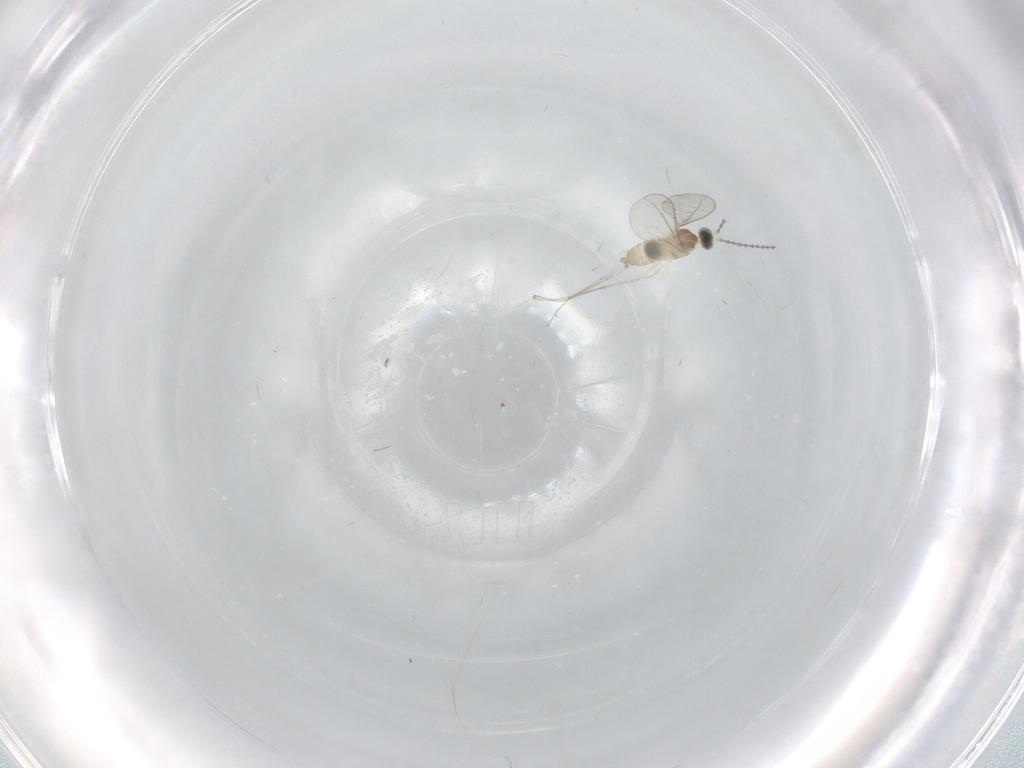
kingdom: Animalia
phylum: Arthropoda
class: Insecta
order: Diptera
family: Cecidomyiidae
